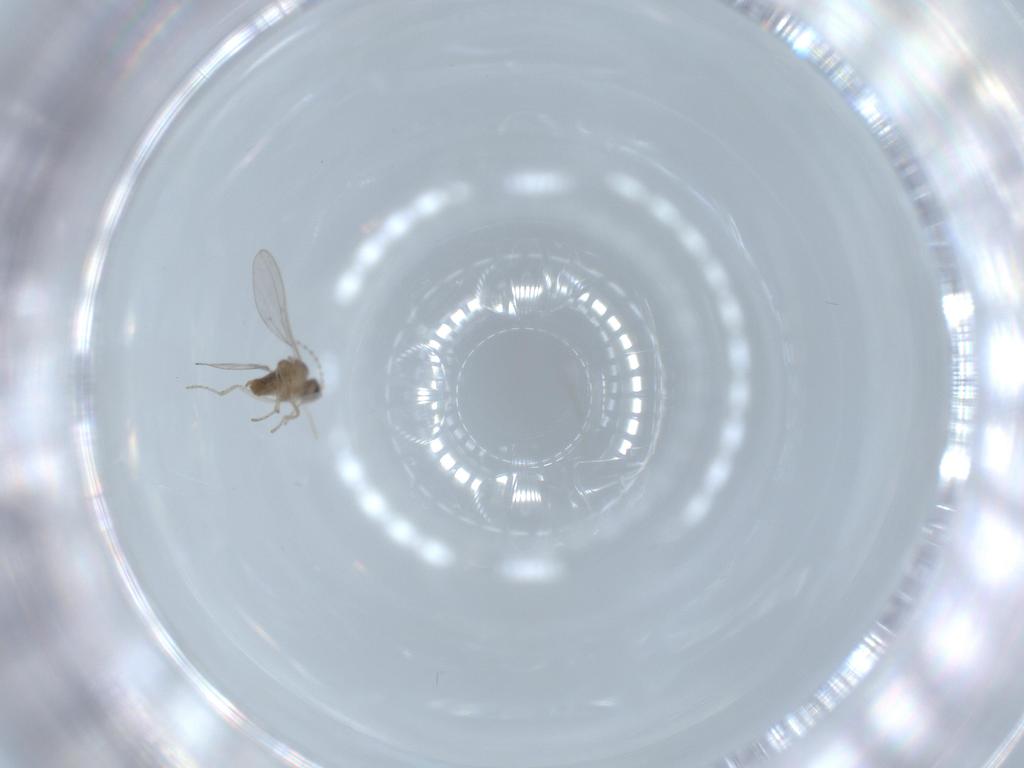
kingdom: Animalia
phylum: Arthropoda
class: Insecta
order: Diptera
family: Cecidomyiidae
